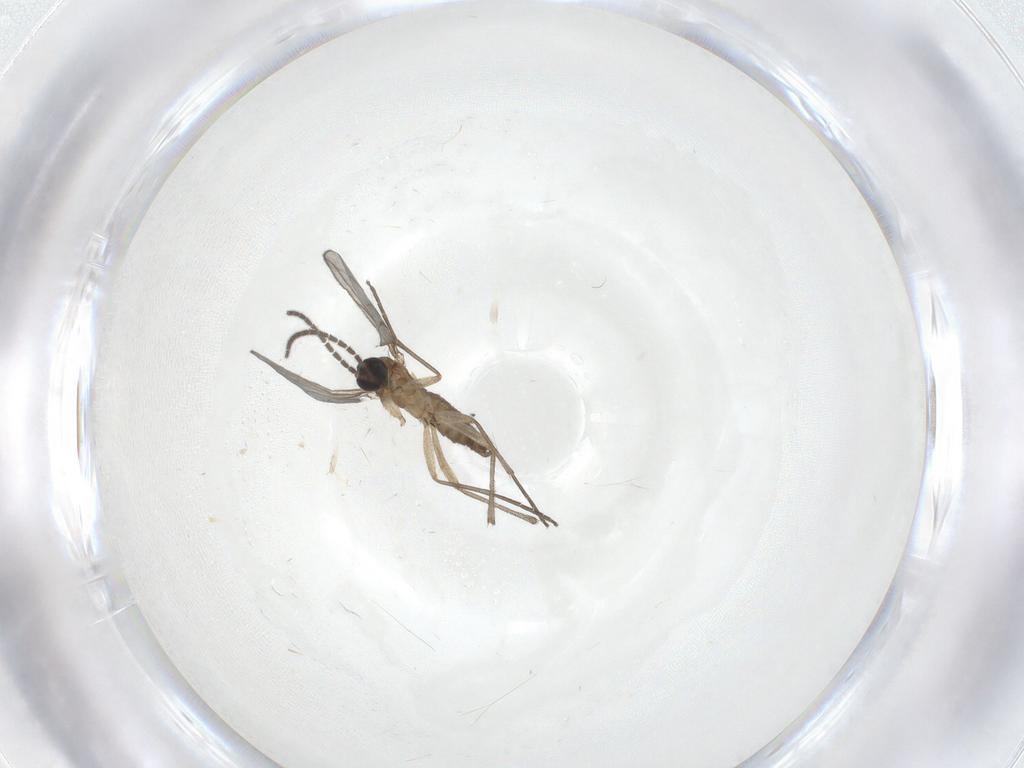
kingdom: Animalia
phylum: Arthropoda
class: Insecta
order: Diptera
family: Sciaridae
